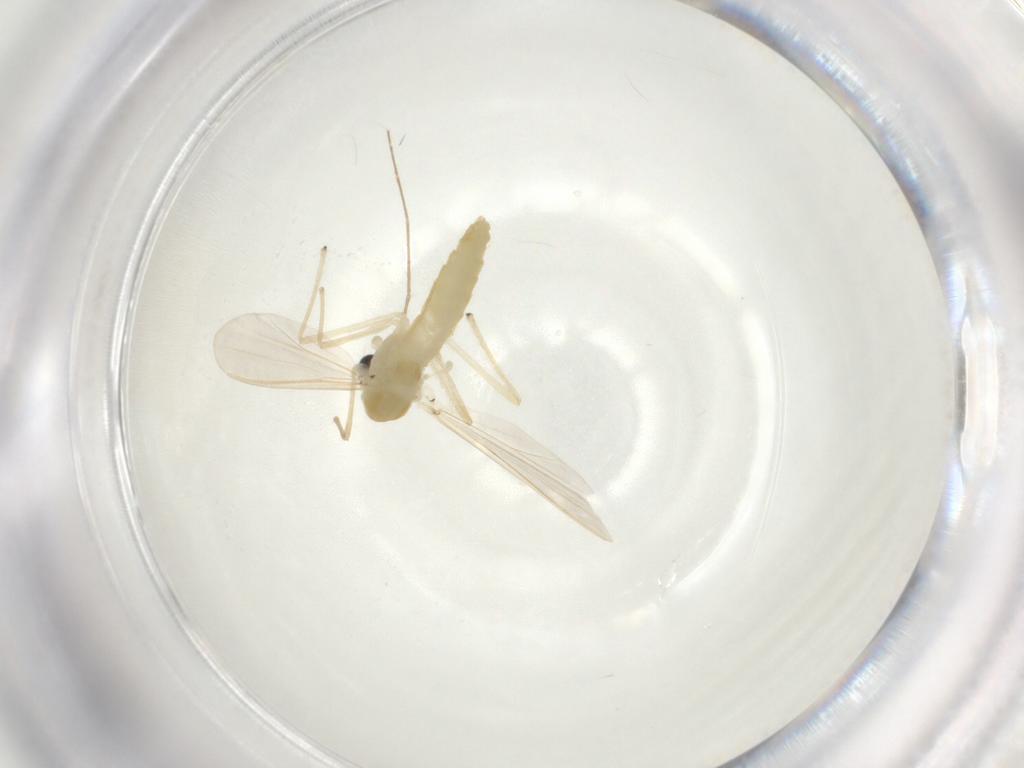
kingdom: Animalia
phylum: Arthropoda
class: Insecta
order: Diptera
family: Chironomidae
